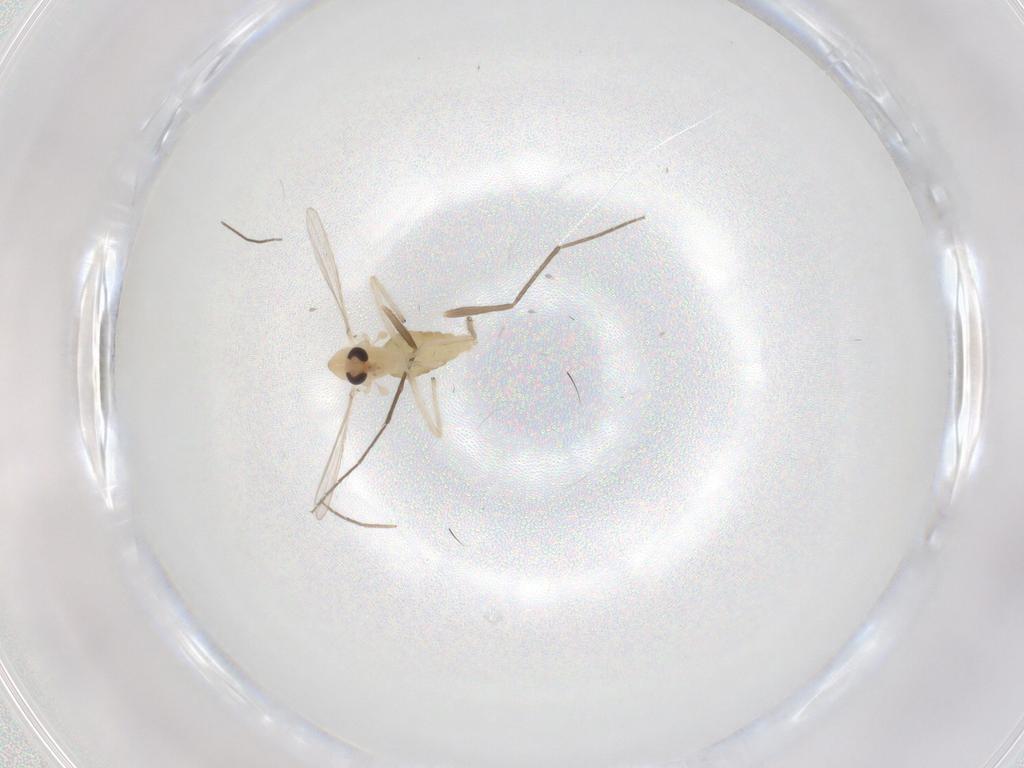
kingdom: Animalia
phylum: Arthropoda
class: Insecta
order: Diptera
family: Chironomidae
